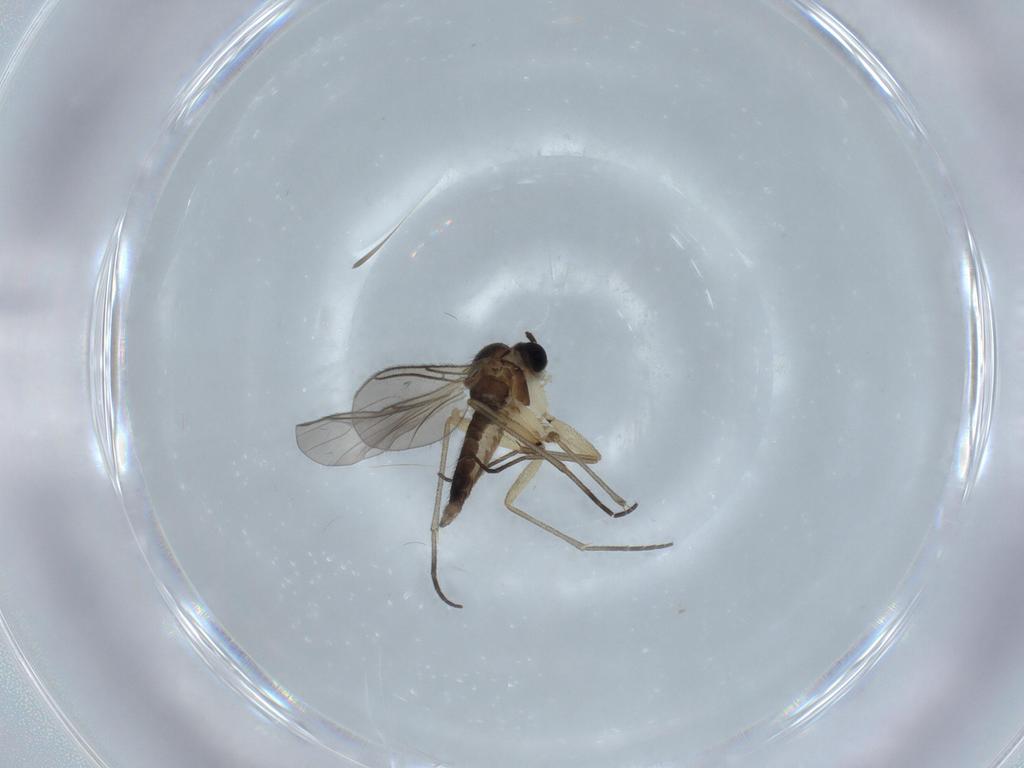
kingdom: Animalia
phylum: Arthropoda
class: Insecta
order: Diptera
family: Sciaridae
